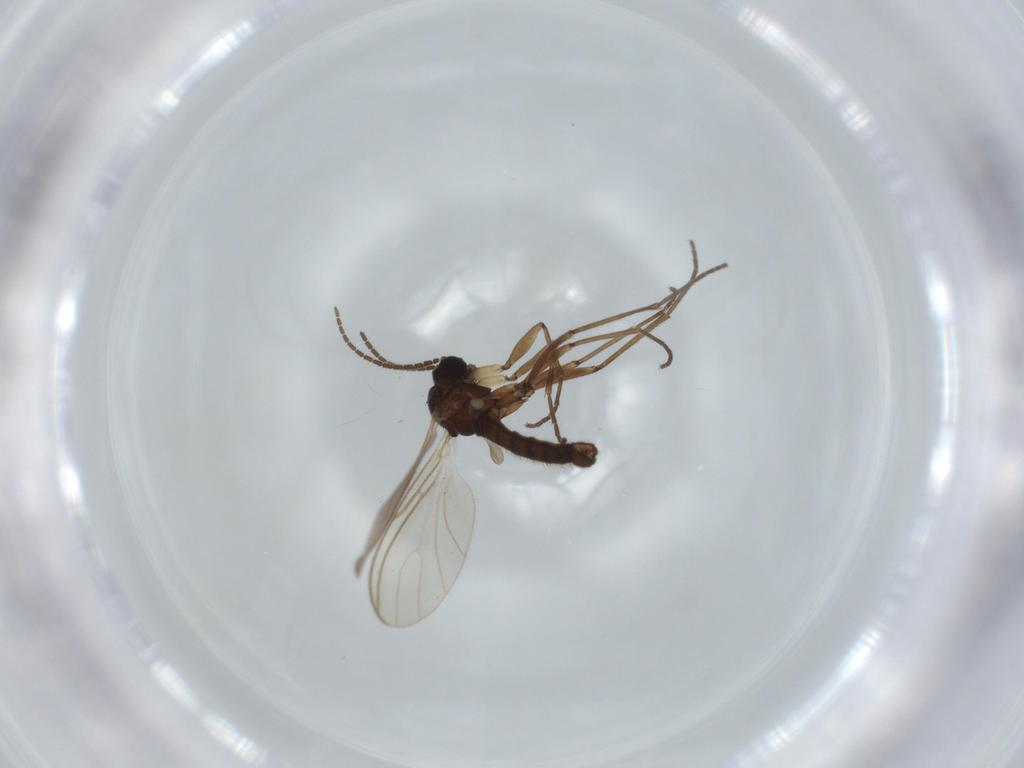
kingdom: Animalia
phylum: Arthropoda
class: Insecta
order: Diptera
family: Sciaridae
